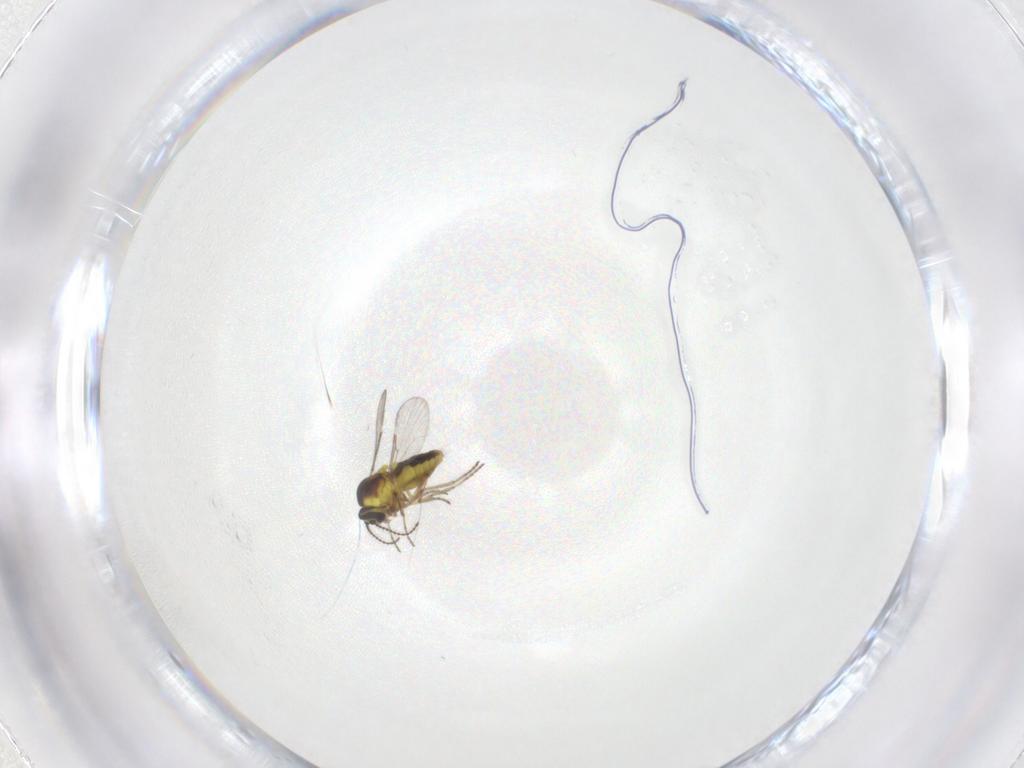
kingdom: Animalia
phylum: Arthropoda
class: Insecta
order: Diptera
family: Ceratopogonidae
